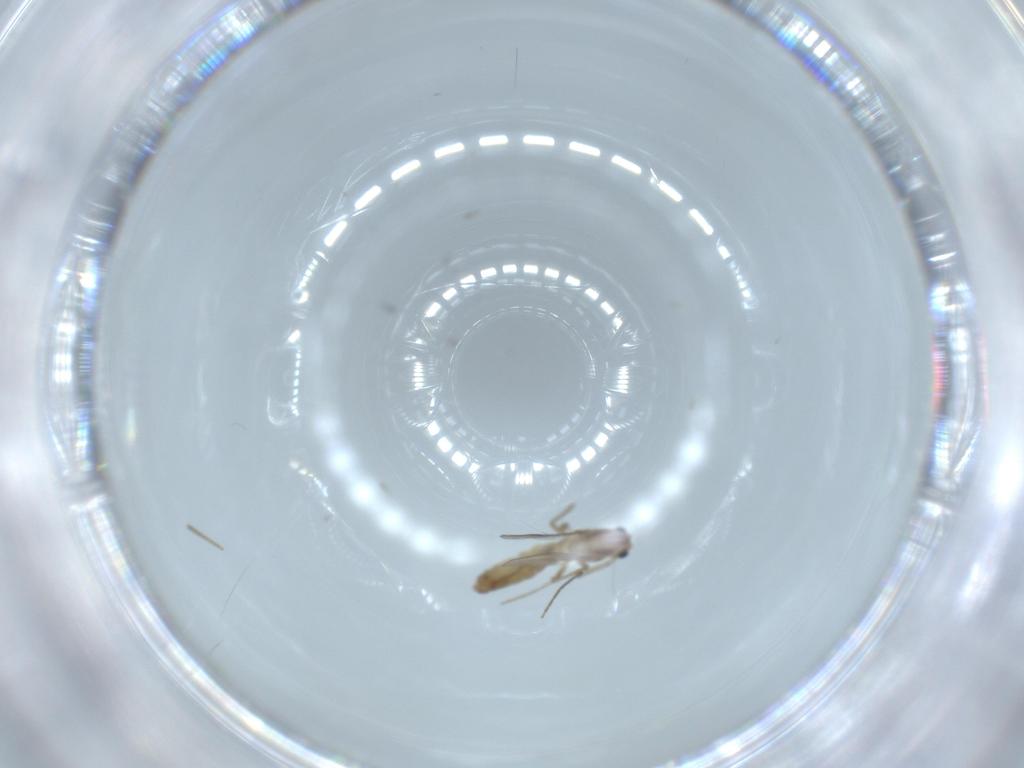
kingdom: Animalia
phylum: Arthropoda
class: Insecta
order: Diptera
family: Chironomidae
